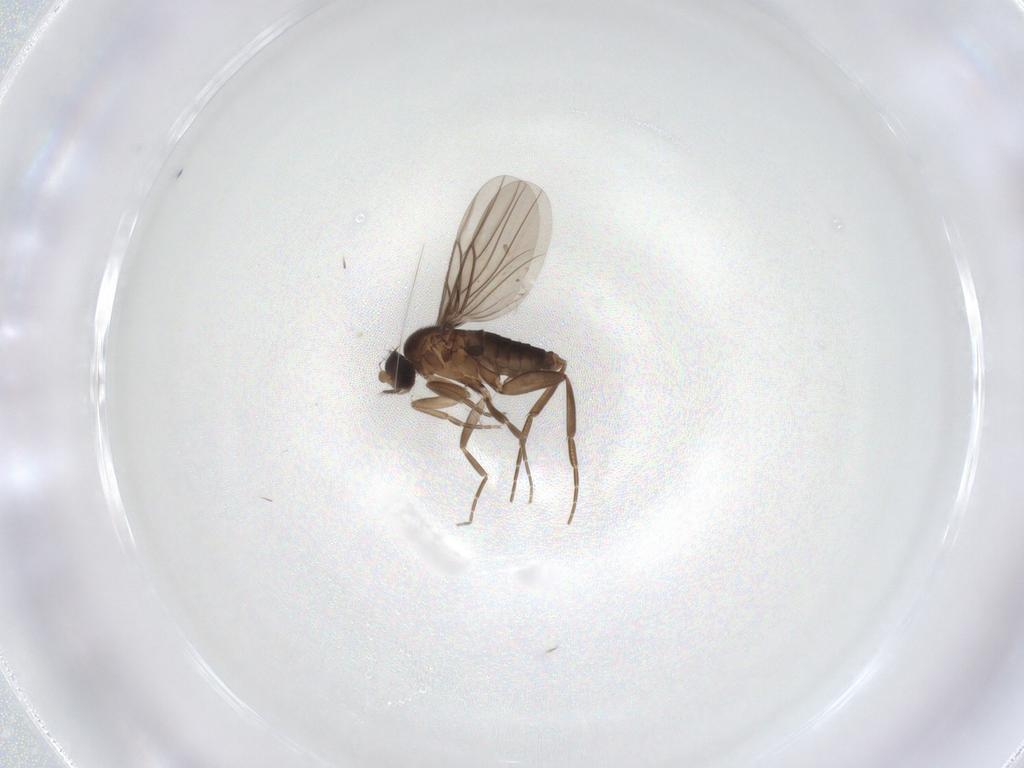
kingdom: Animalia
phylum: Arthropoda
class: Insecta
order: Diptera
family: Phoridae
